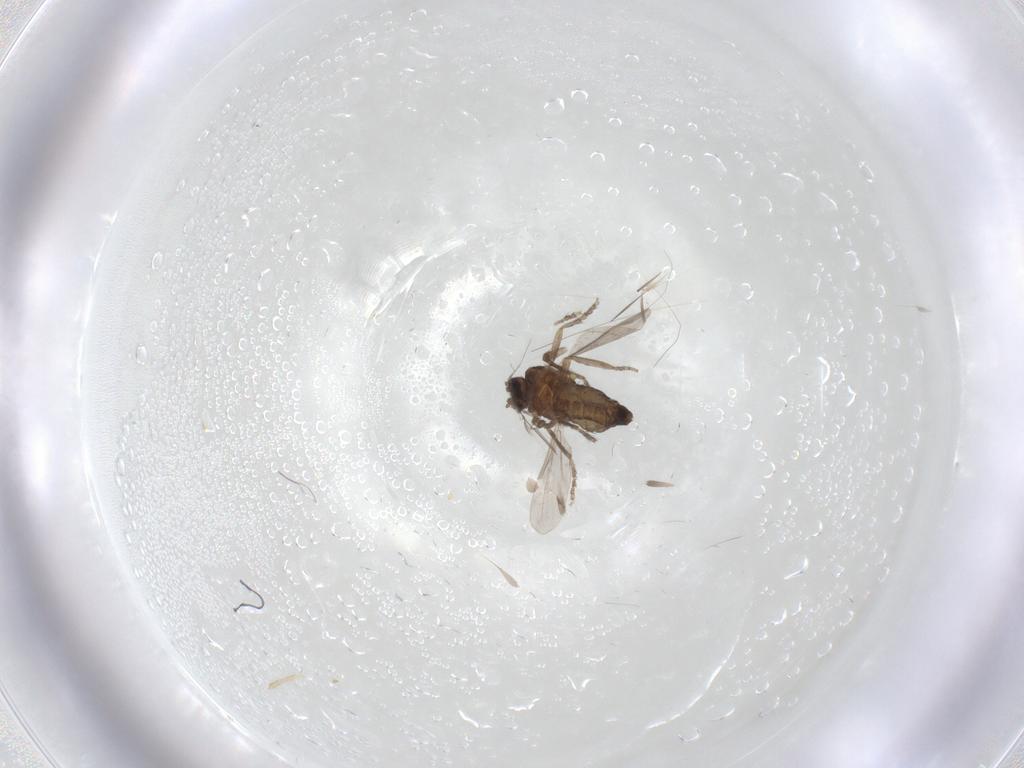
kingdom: Animalia
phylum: Arthropoda
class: Insecta
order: Diptera
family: Ceratopogonidae
